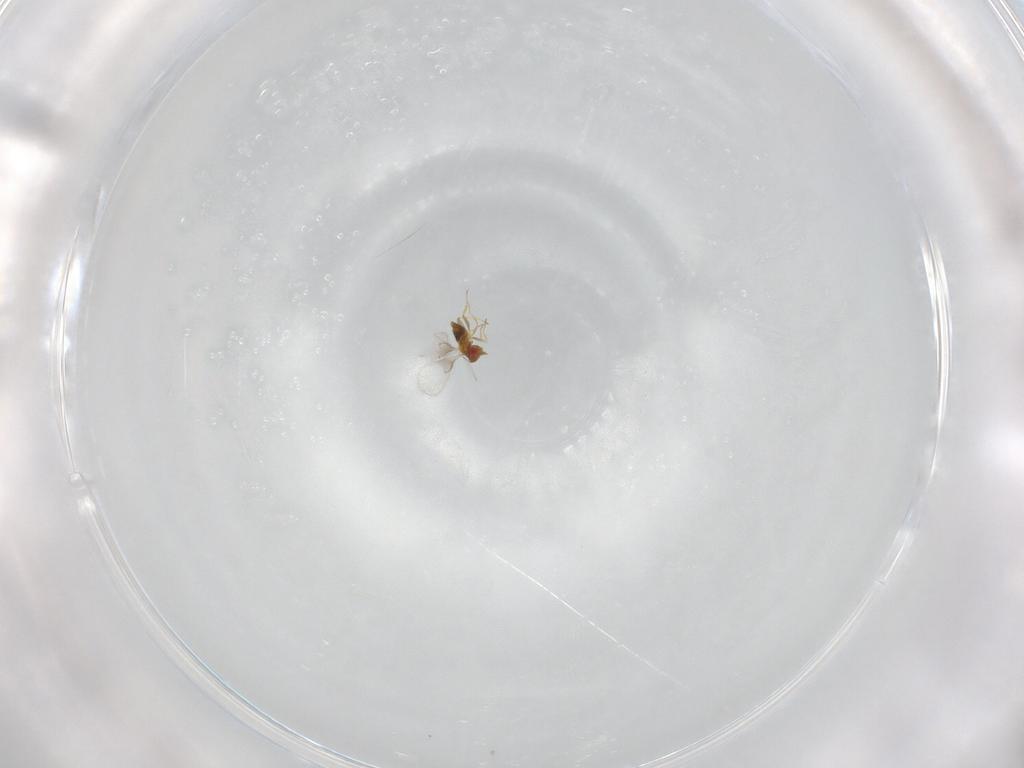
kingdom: Animalia
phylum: Arthropoda
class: Insecta
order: Hymenoptera
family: Trichogrammatidae
